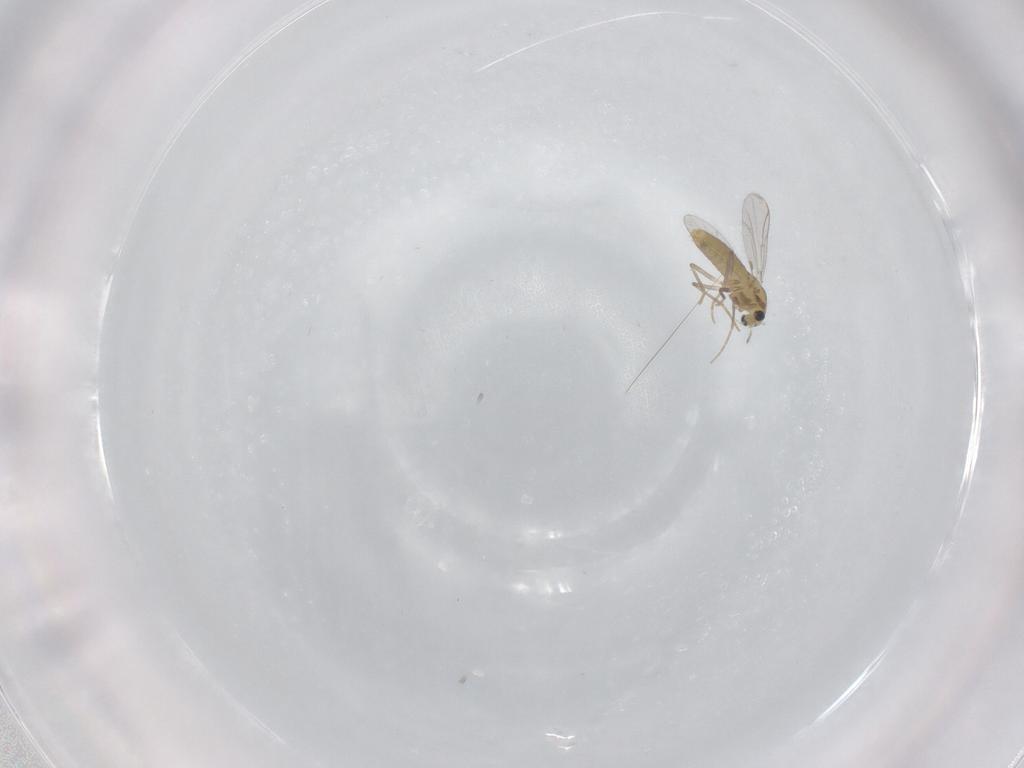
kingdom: Animalia
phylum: Arthropoda
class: Insecta
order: Diptera
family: Chironomidae
